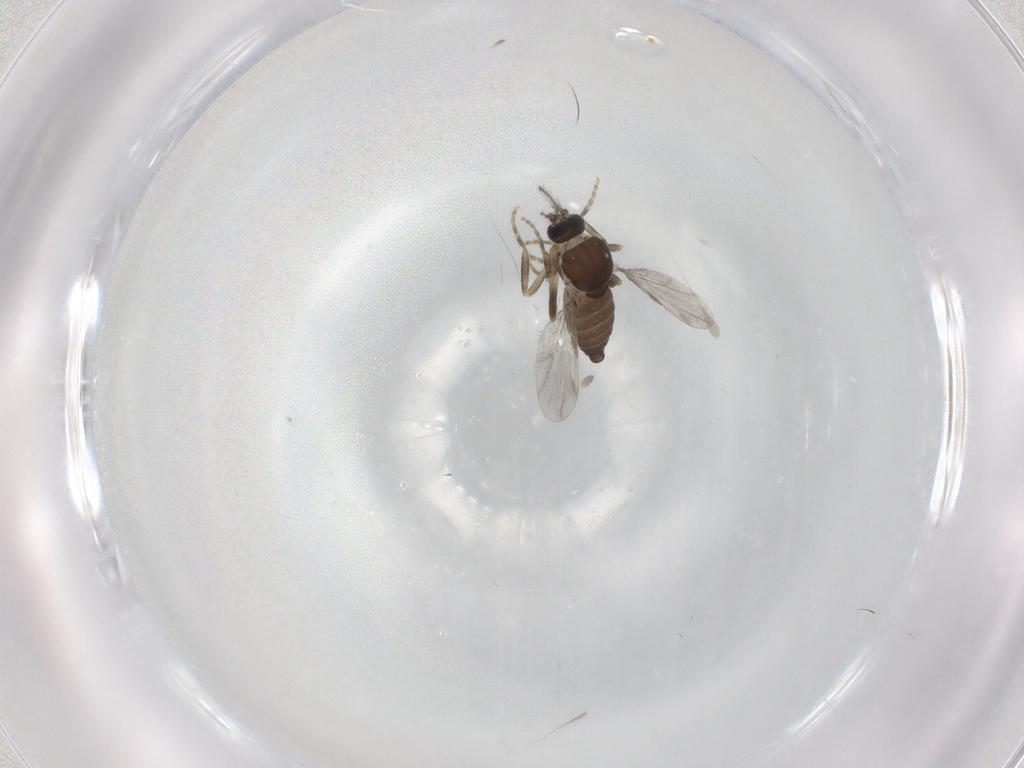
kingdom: Animalia
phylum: Arthropoda
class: Insecta
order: Diptera
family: Ceratopogonidae
